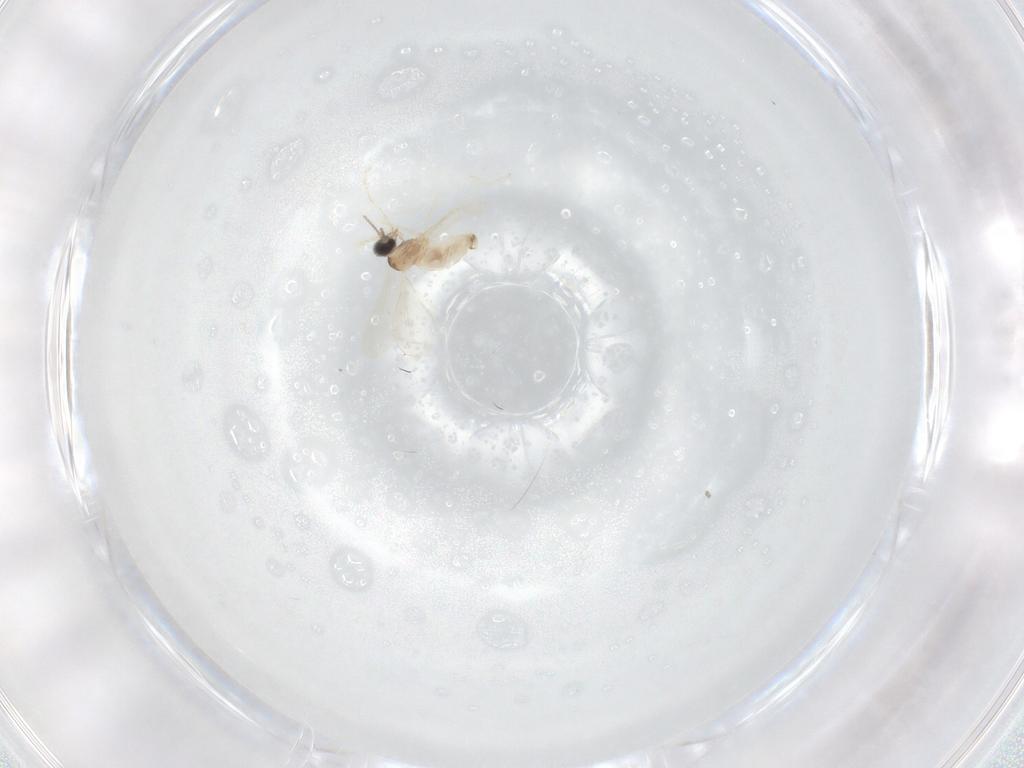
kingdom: Animalia
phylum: Arthropoda
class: Insecta
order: Diptera
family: Cecidomyiidae
